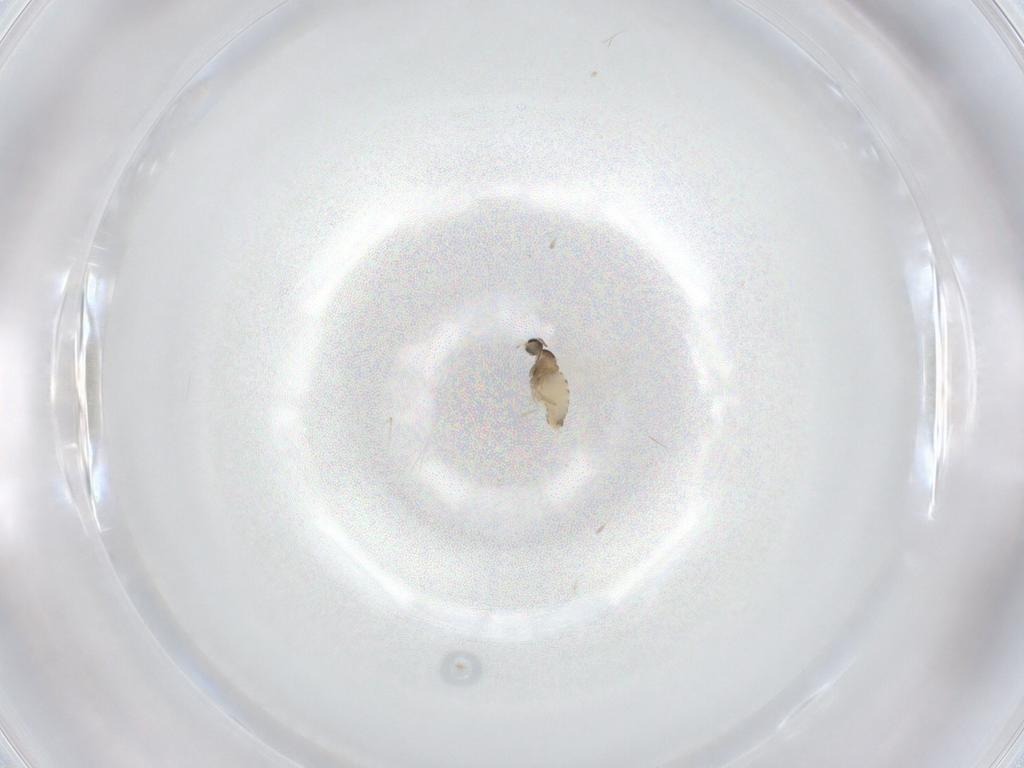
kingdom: Animalia
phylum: Arthropoda
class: Insecta
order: Diptera
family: Cecidomyiidae
